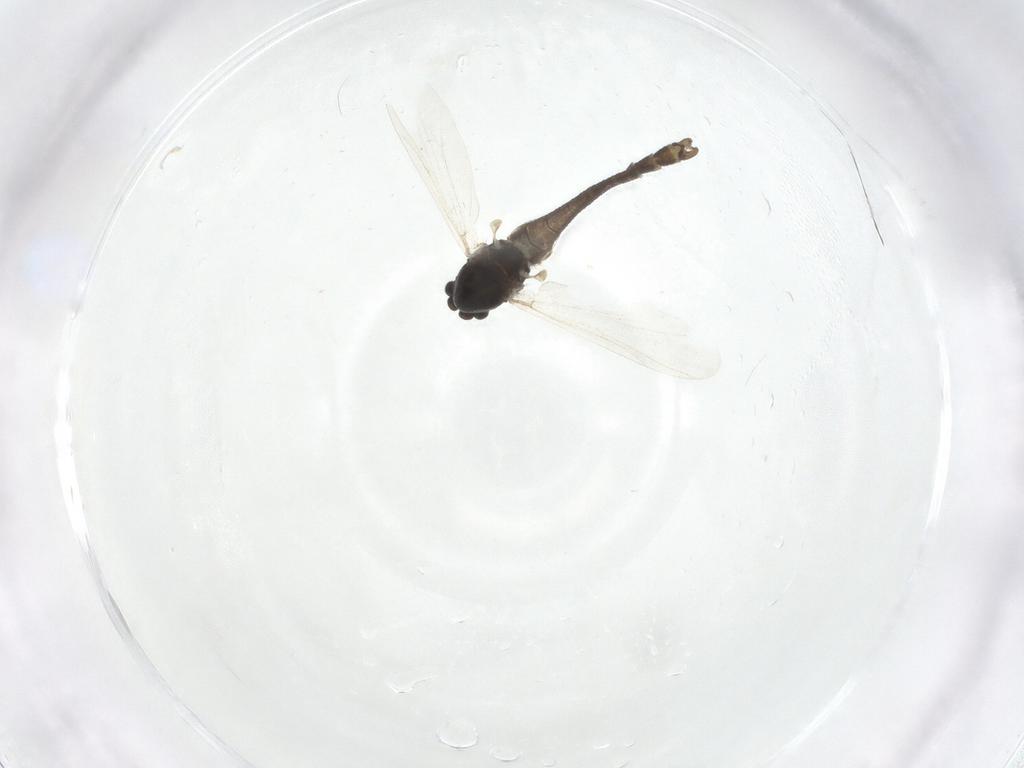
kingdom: Animalia
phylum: Arthropoda
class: Insecta
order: Diptera
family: Chironomidae
